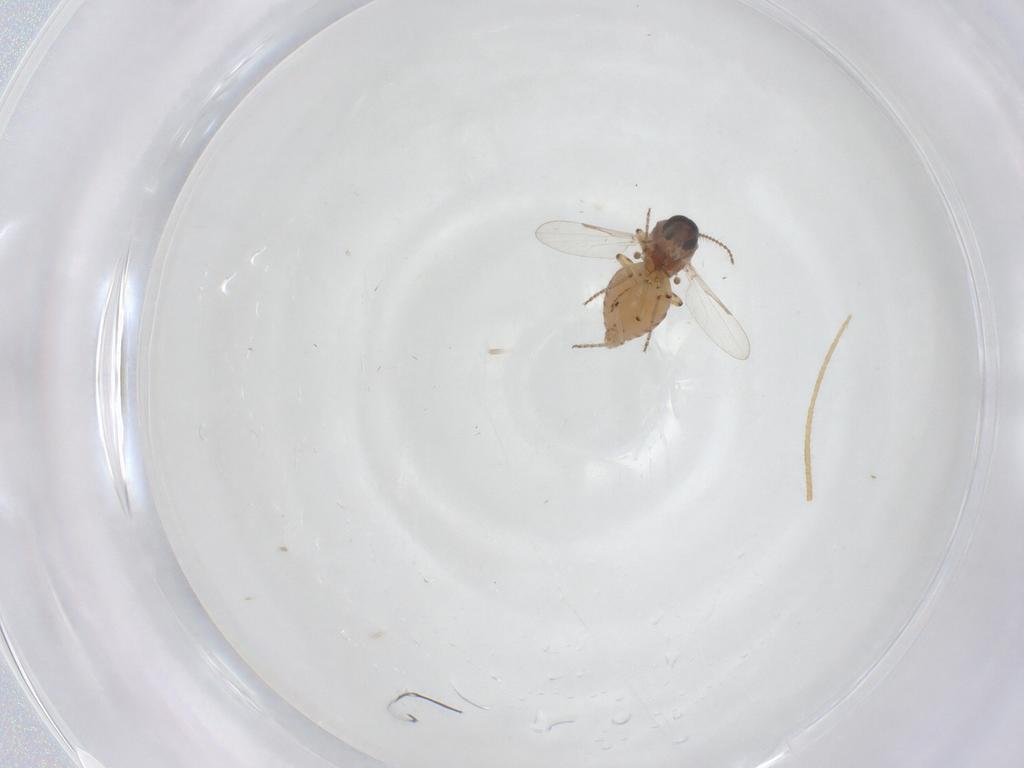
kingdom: Animalia
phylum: Arthropoda
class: Insecta
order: Diptera
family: Ceratopogonidae
